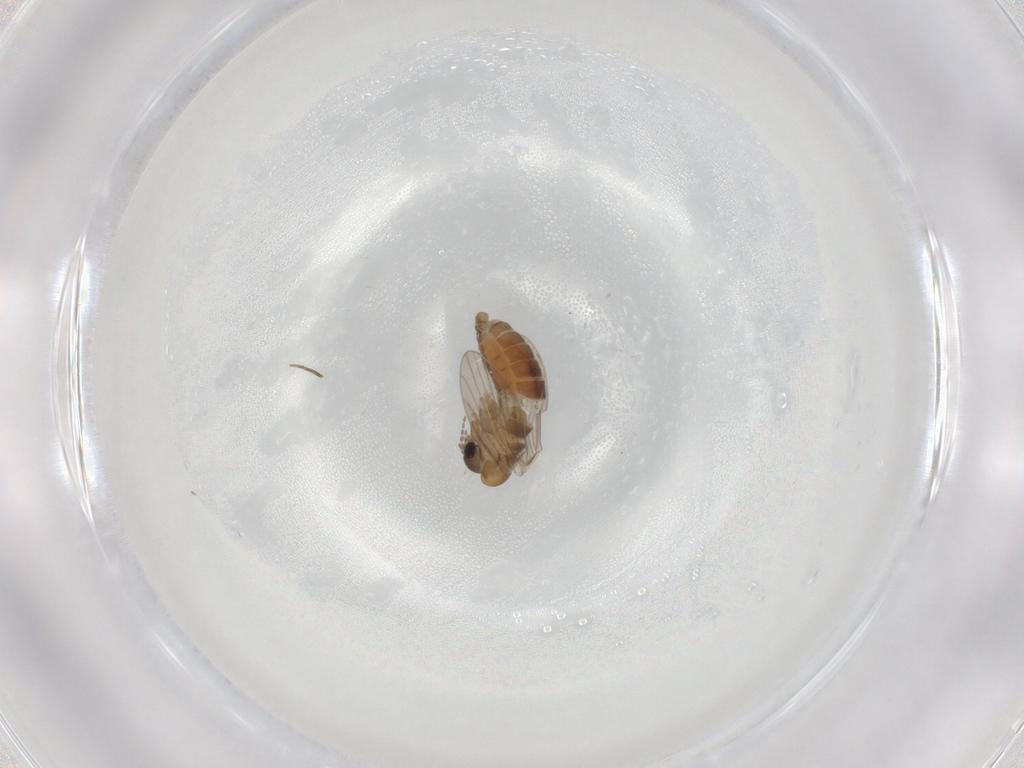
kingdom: Animalia
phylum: Arthropoda
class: Insecta
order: Diptera
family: Phoridae
